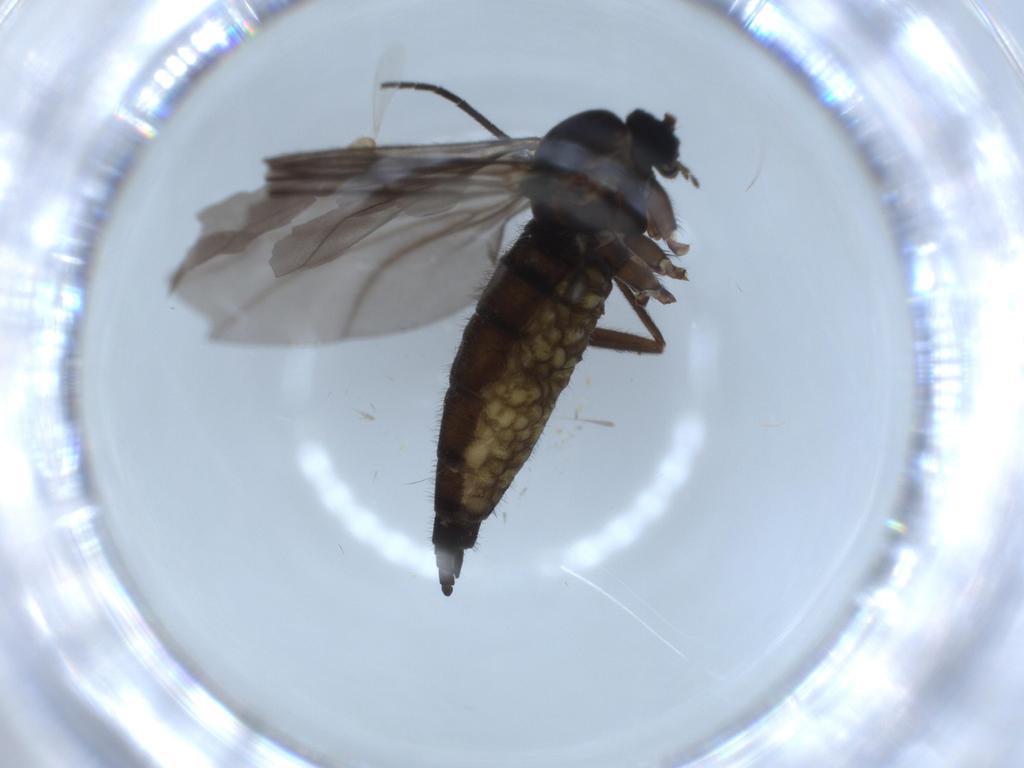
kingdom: Animalia
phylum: Arthropoda
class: Insecta
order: Diptera
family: Sciaridae
